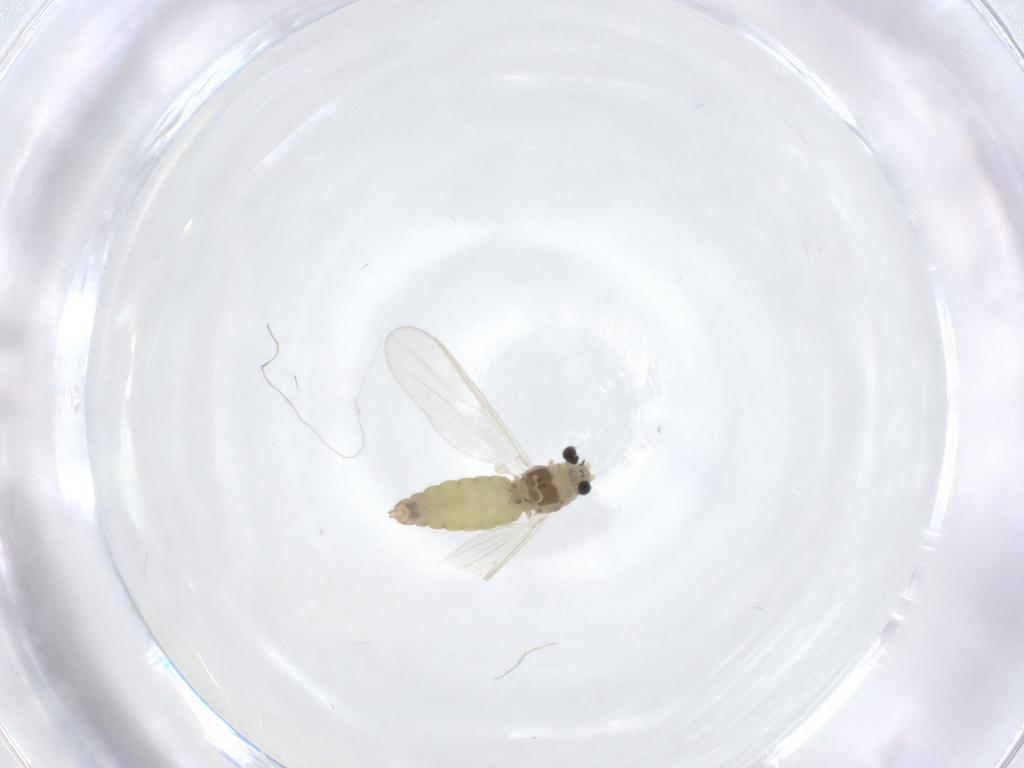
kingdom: Animalia
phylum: Arthropoda
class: Insecta
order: Diptera
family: Chironomidae
